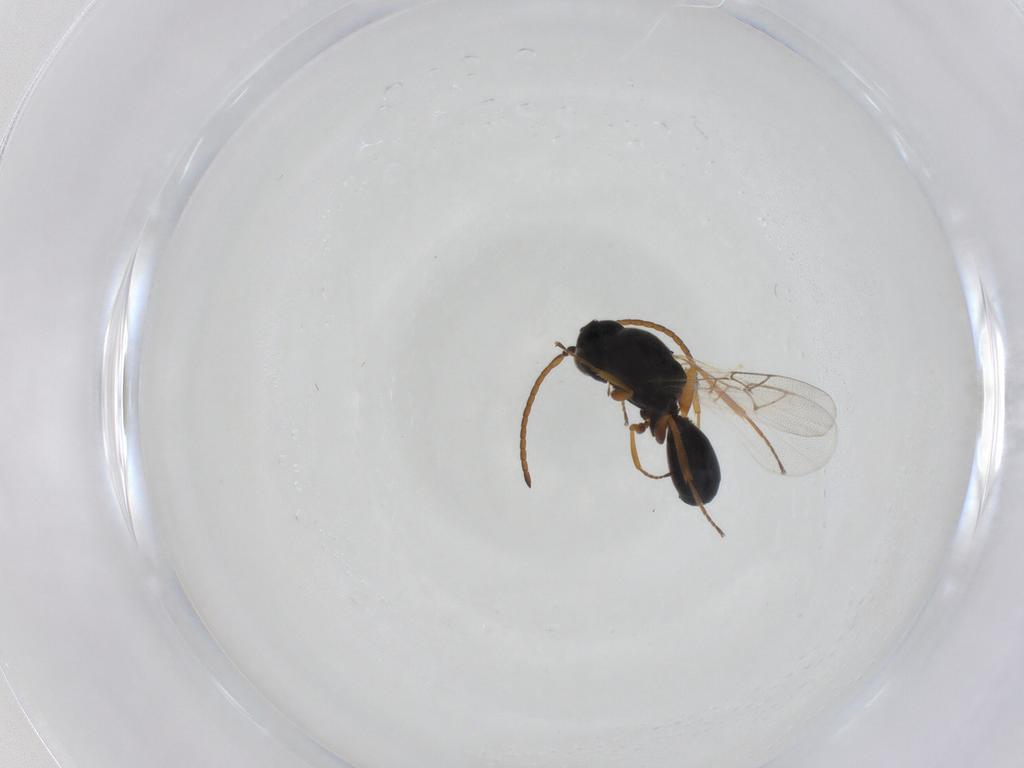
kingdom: Animalia
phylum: Arthropoda
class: Insecta
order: Hymenoptera
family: Figitidae
